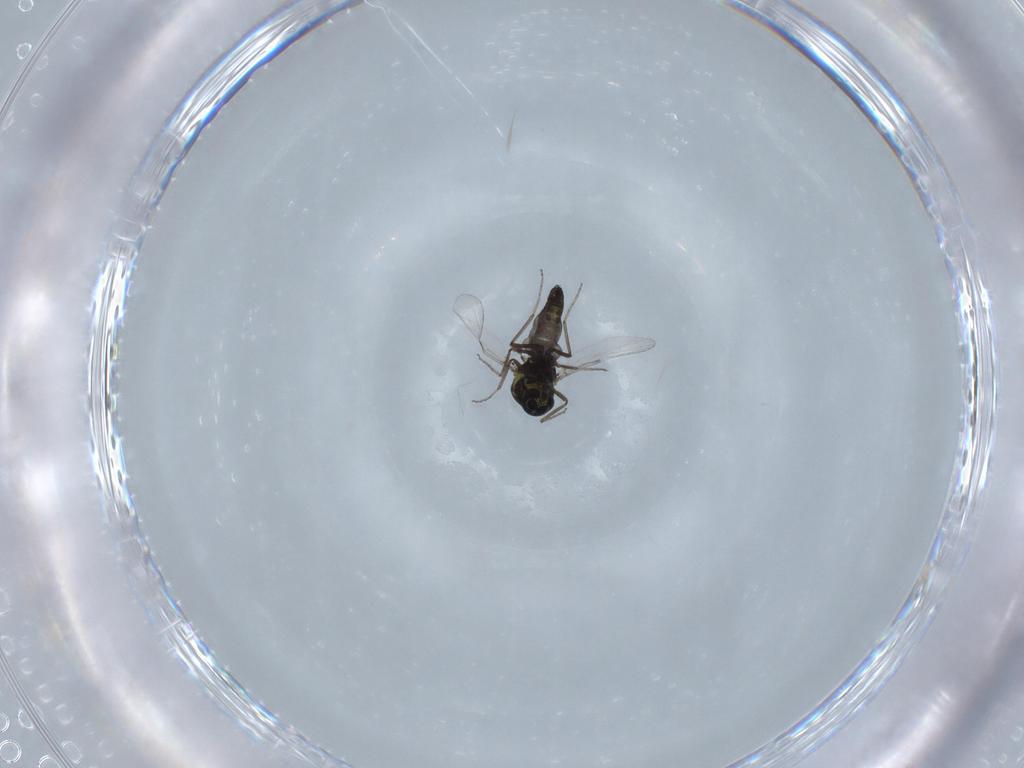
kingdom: Animalia
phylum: Arthropoda
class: Insecta
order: Diptera
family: Ceratopogonidae
